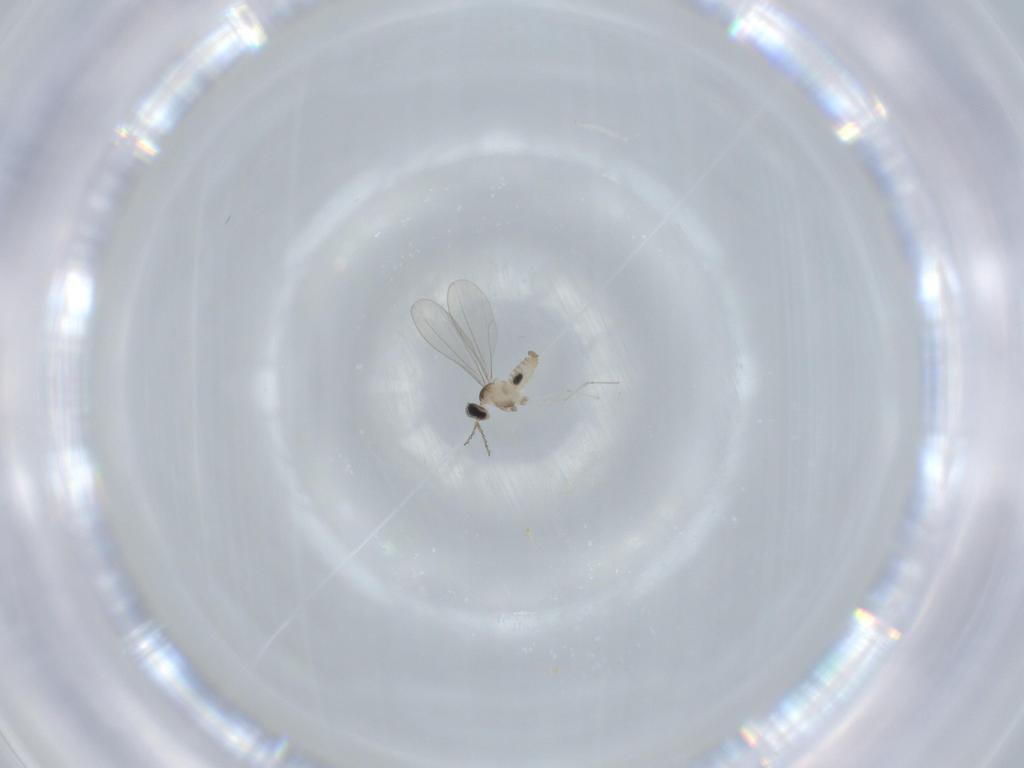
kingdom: Animalia
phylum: Arthropoda
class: Insecta
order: Diptera
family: Cecidomyiidae
